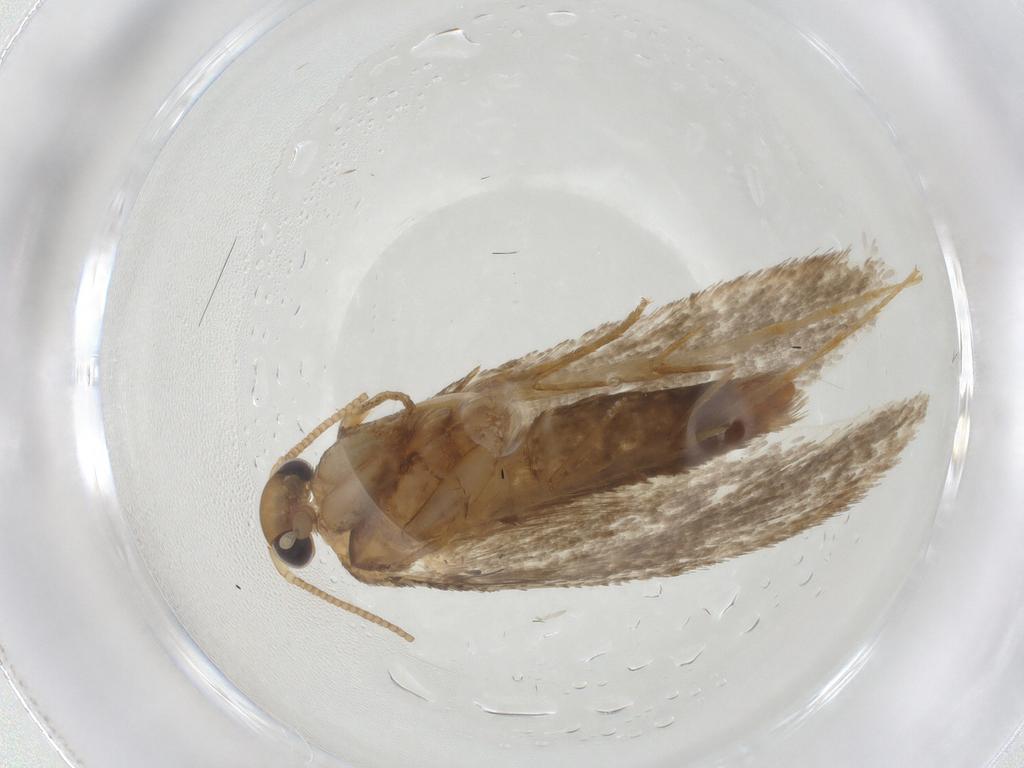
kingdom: Animalia
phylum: Arthropoda
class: Insecta
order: Lepidoptera
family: Tineidae
